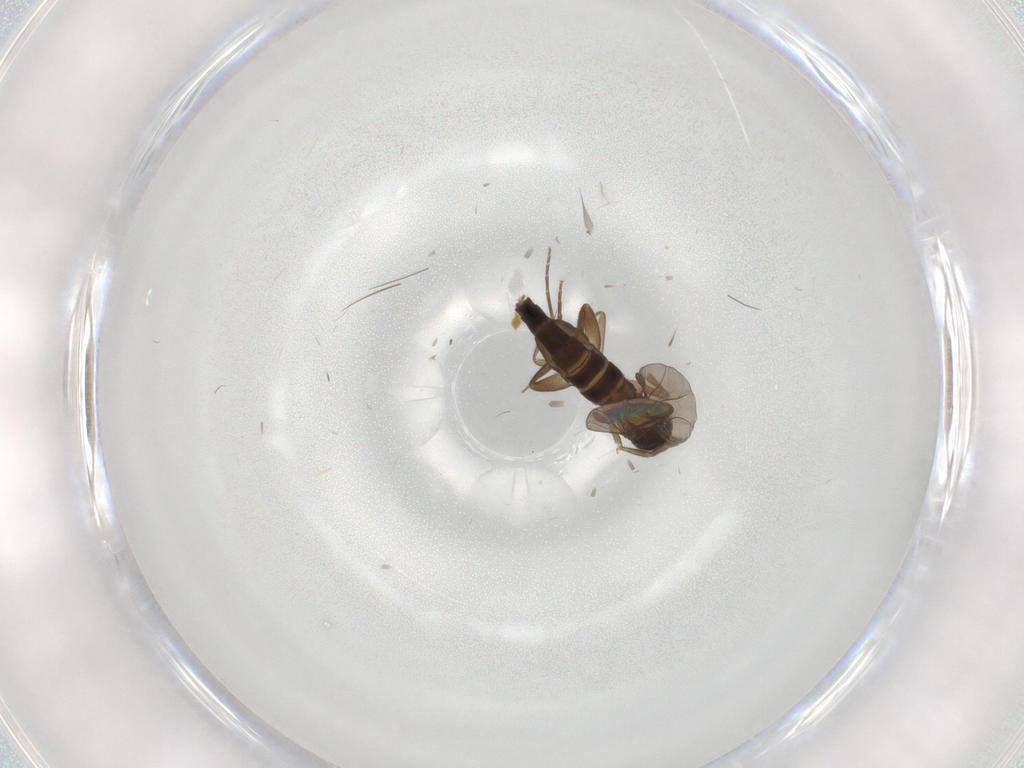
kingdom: Animalia
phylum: Arthropoda
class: Insecta
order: Diptera
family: Phoridae
